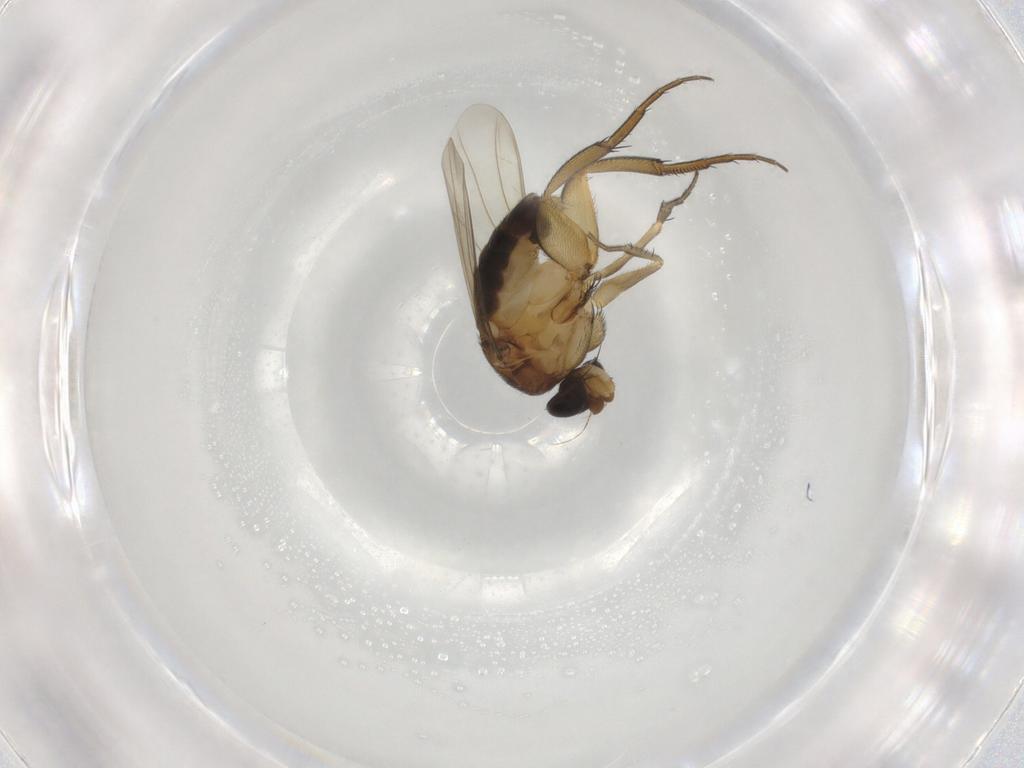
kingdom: Animalia
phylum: Arthropoda
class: Insecta
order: Diptera
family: Phoridae
